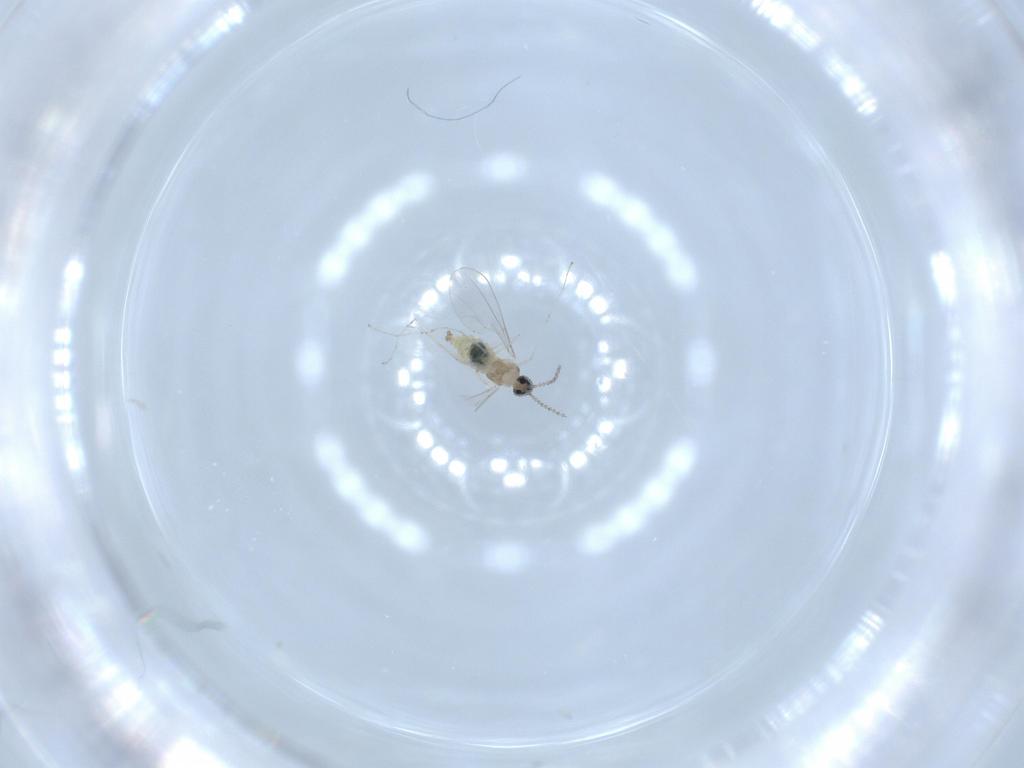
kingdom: Animalia
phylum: Arthropoda
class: Insecta
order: Diptera
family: Cecidomyiidae
